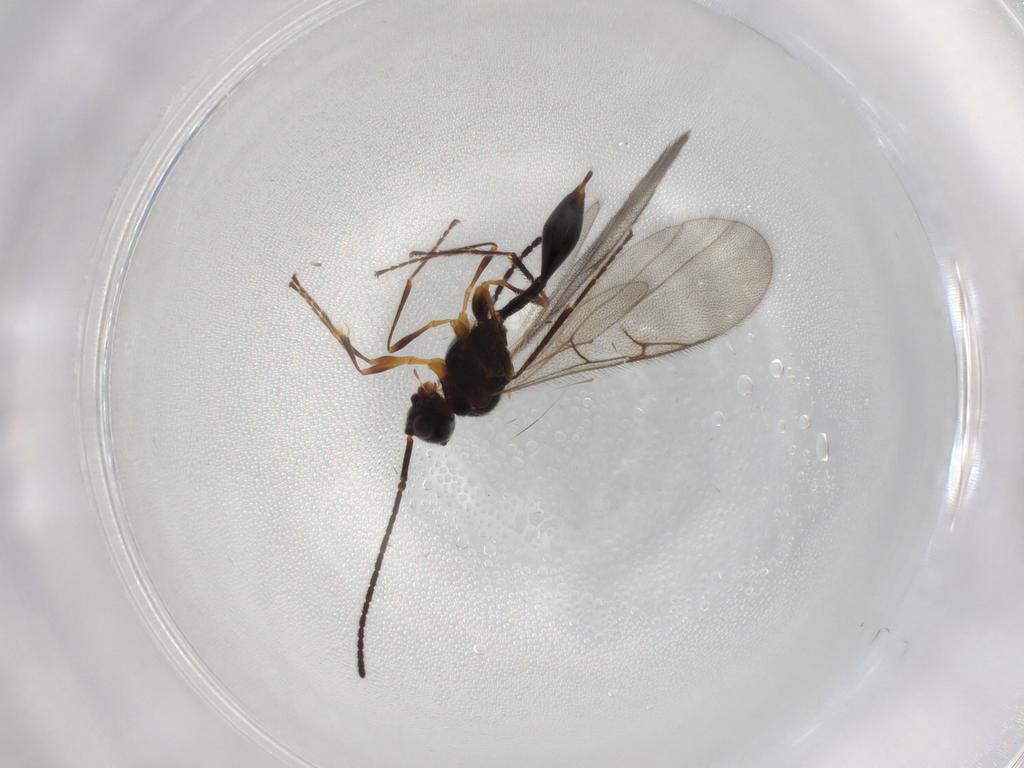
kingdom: Animalia
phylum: Arthropoda
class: Insecta
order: Hymenoptera
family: Diapriidae
